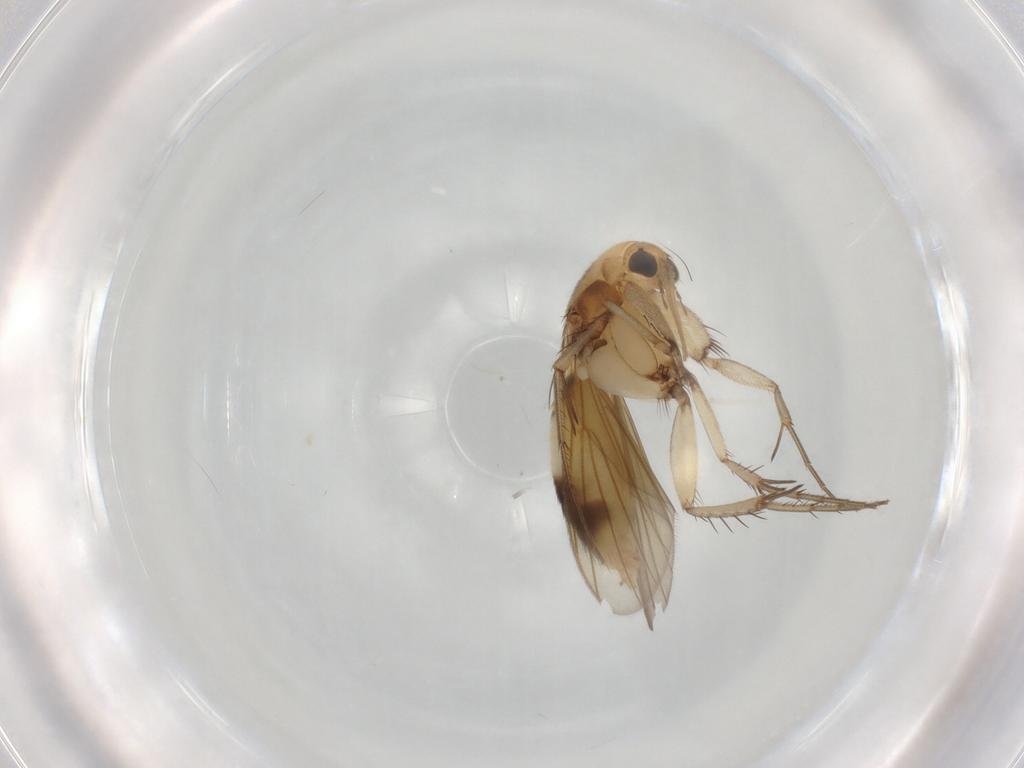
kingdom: Animalia
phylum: Arthropoda
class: Insecta
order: Diptera
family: Mycetophilidae
